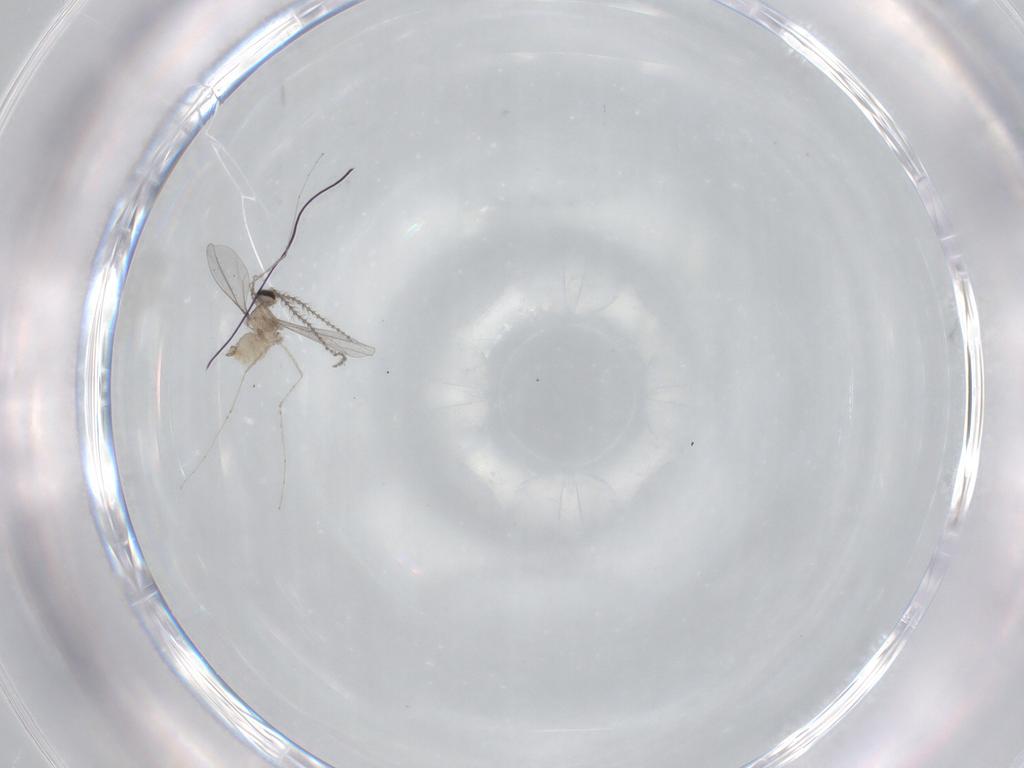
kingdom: Animalia
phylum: Arthropoda
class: Insecta
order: Diptera
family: Cecidomyiidae
